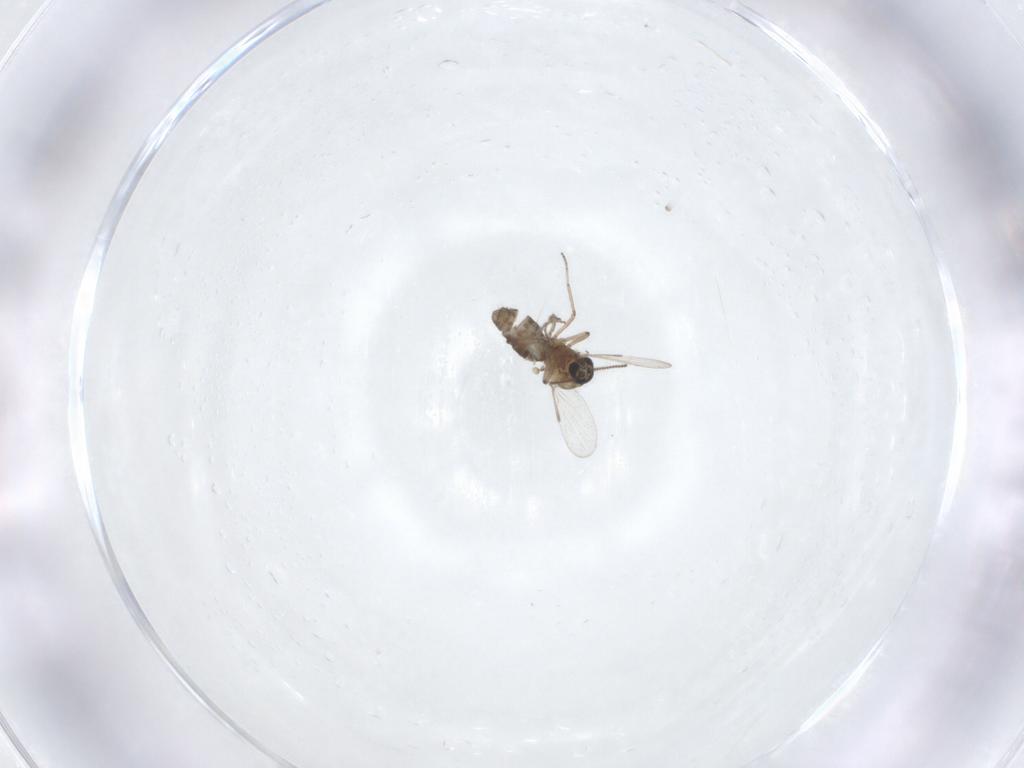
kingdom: Animalia
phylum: Arthropoda
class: Insecta
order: Diptera
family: Ceratopogonidae
